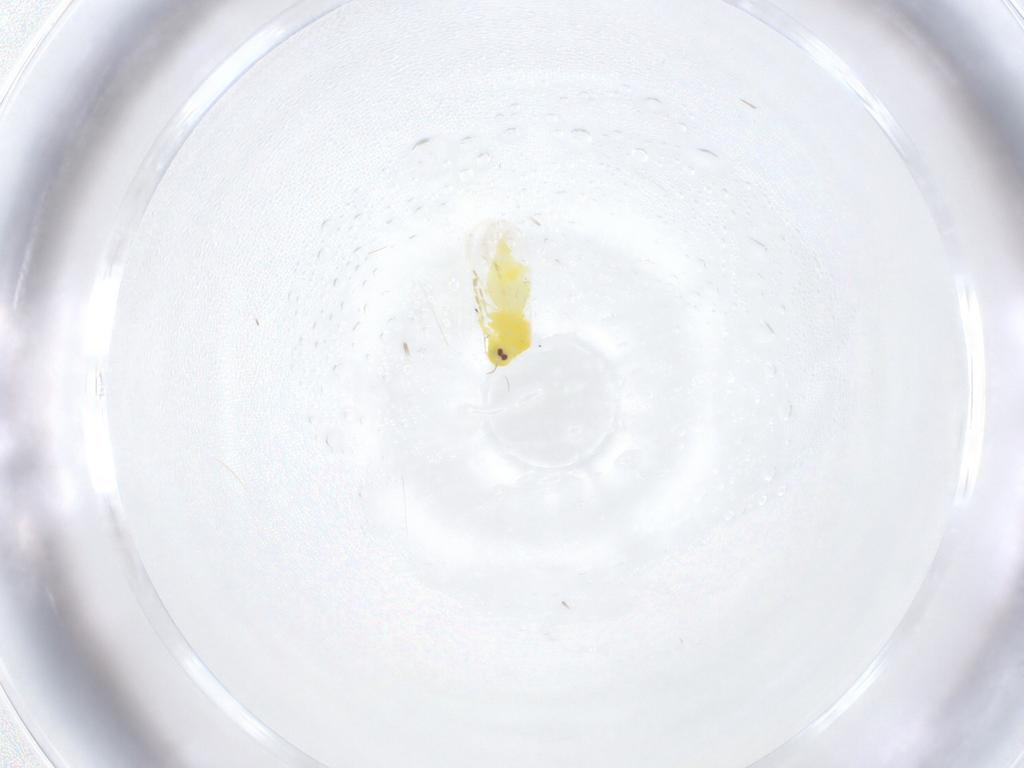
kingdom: Animalia
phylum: Arthropoda
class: Insecta
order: Hemiptera
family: Aleyrodidae
